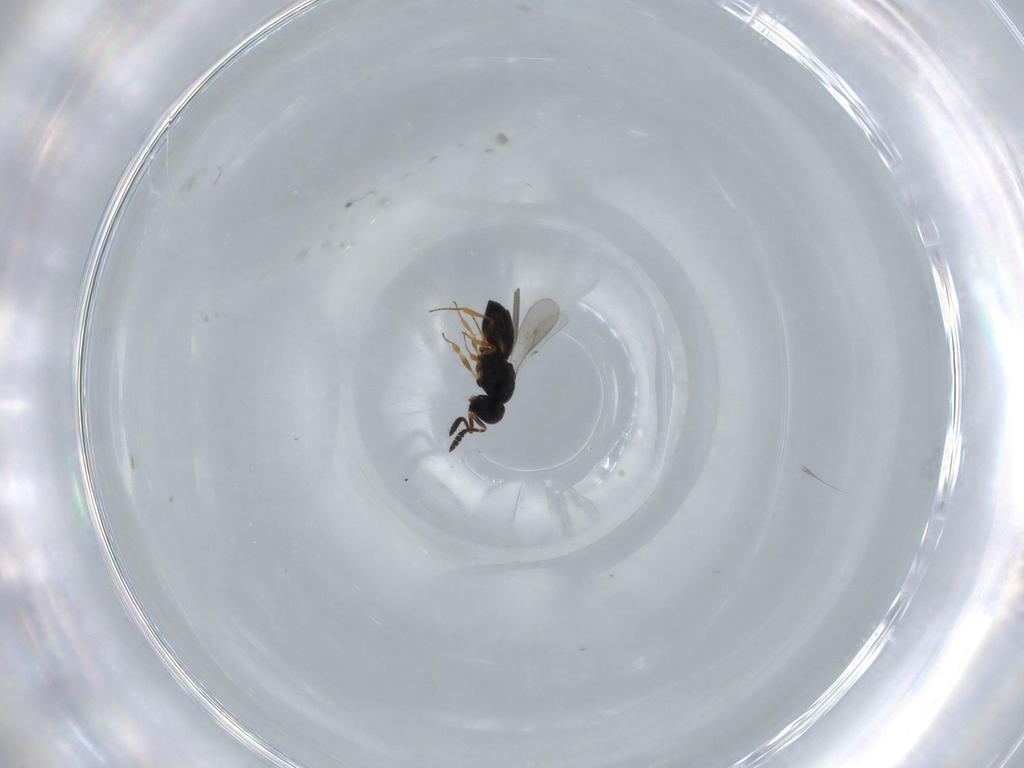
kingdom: Animalia
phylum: Arthropoda
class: Insecta
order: Hymenoptera
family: Scelionidae
